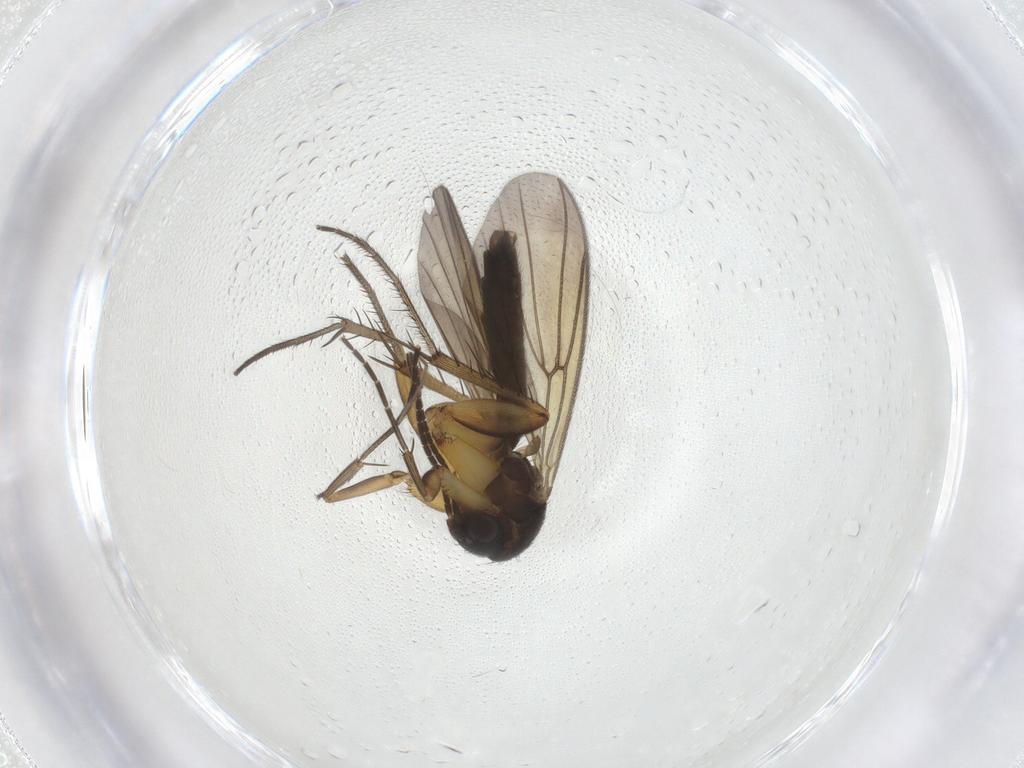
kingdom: Animalia
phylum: Arthropoda
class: Insecta
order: Diptera
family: Mycetophilidae
